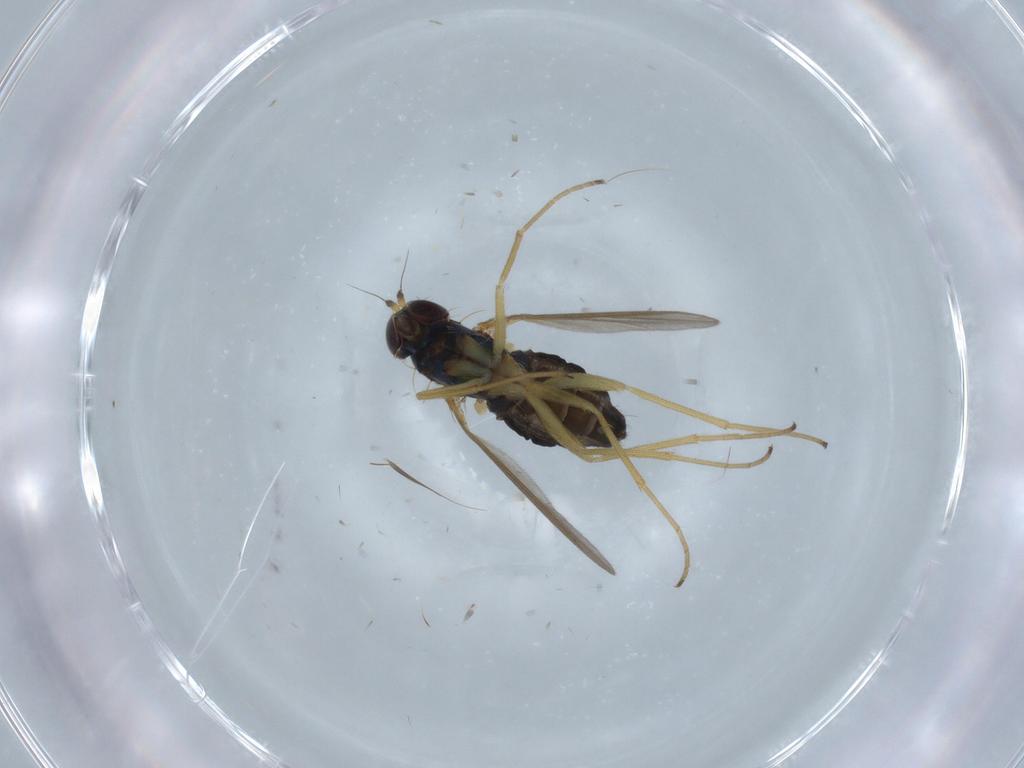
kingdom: Animalia
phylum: Arthropoda
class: Insecta
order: Diptera
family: Dolichopodidae
